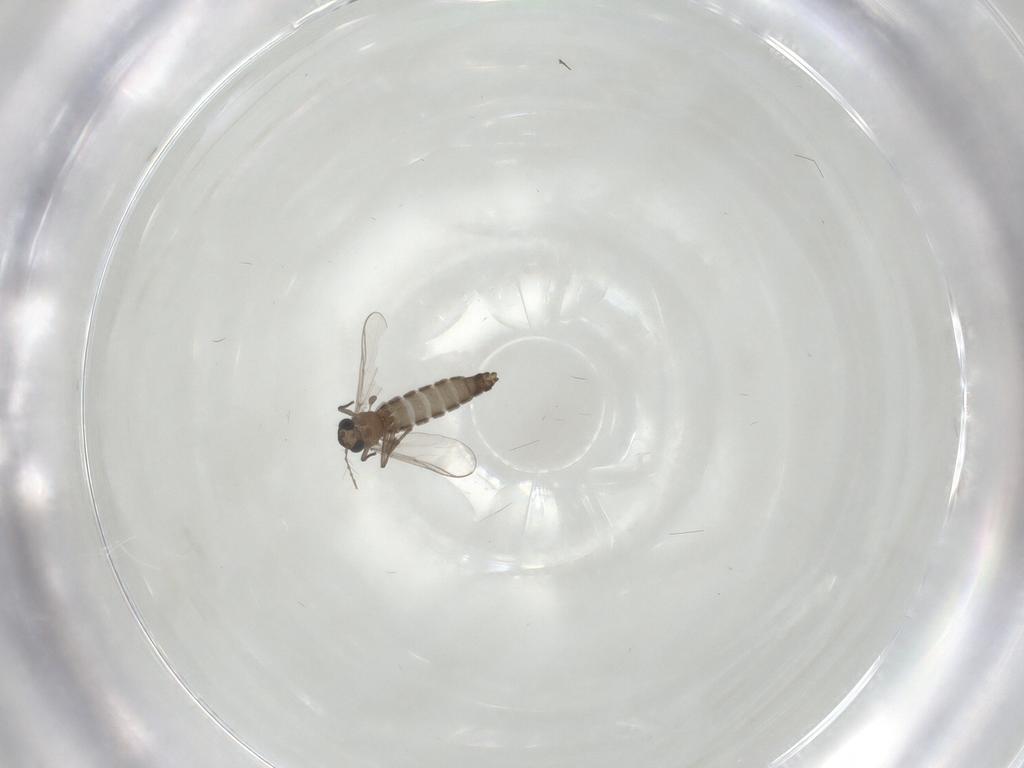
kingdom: Animalia
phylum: Arthropoda
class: Insecta
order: Diptera
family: Chironomidae
